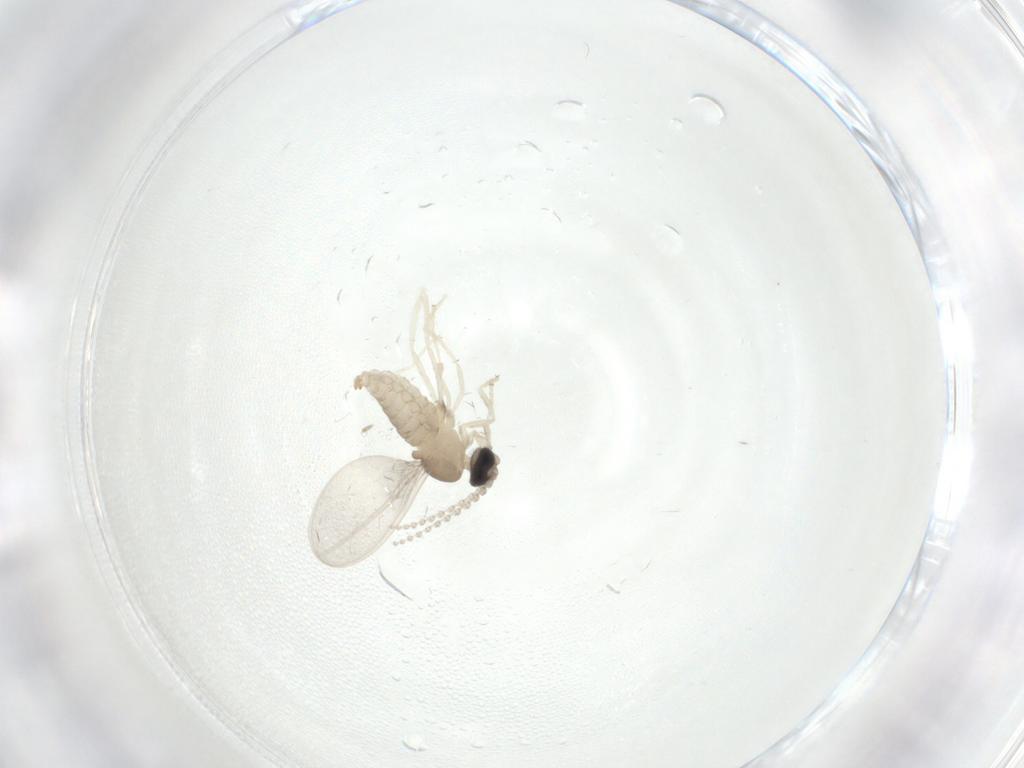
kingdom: Animalia
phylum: Arthropoda
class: Insecta
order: Diptera
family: Cecidomyiidae
